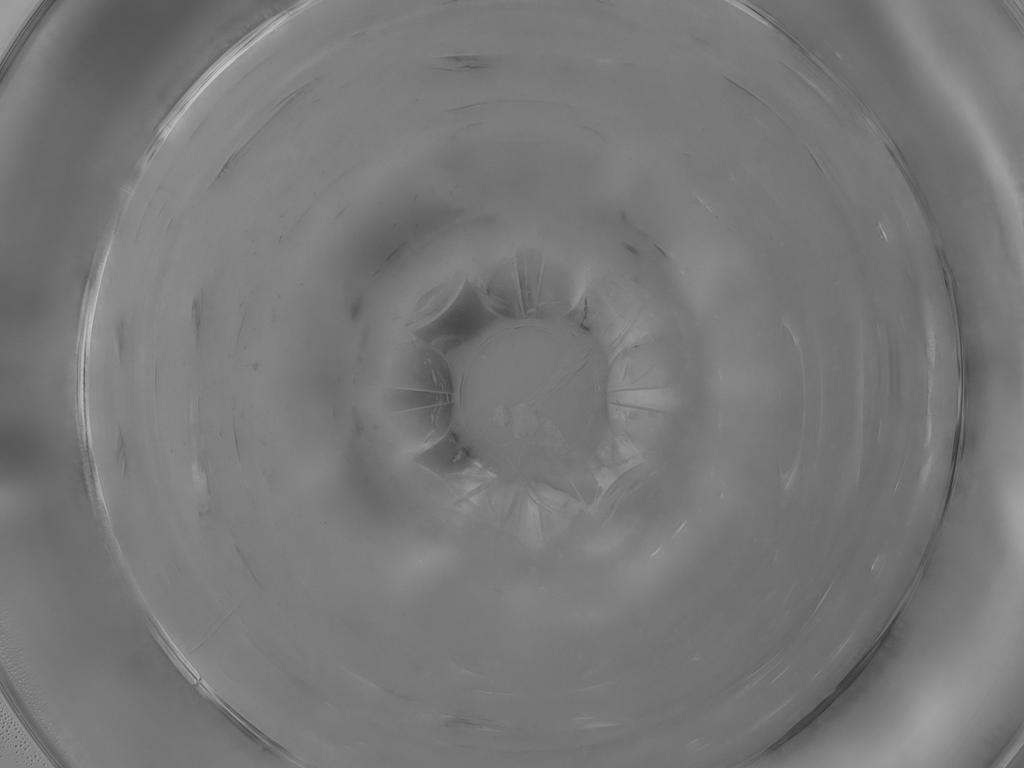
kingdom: Animalia
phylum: Arthropoda
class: Insecta
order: Diptera
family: Cecidomyiidae
